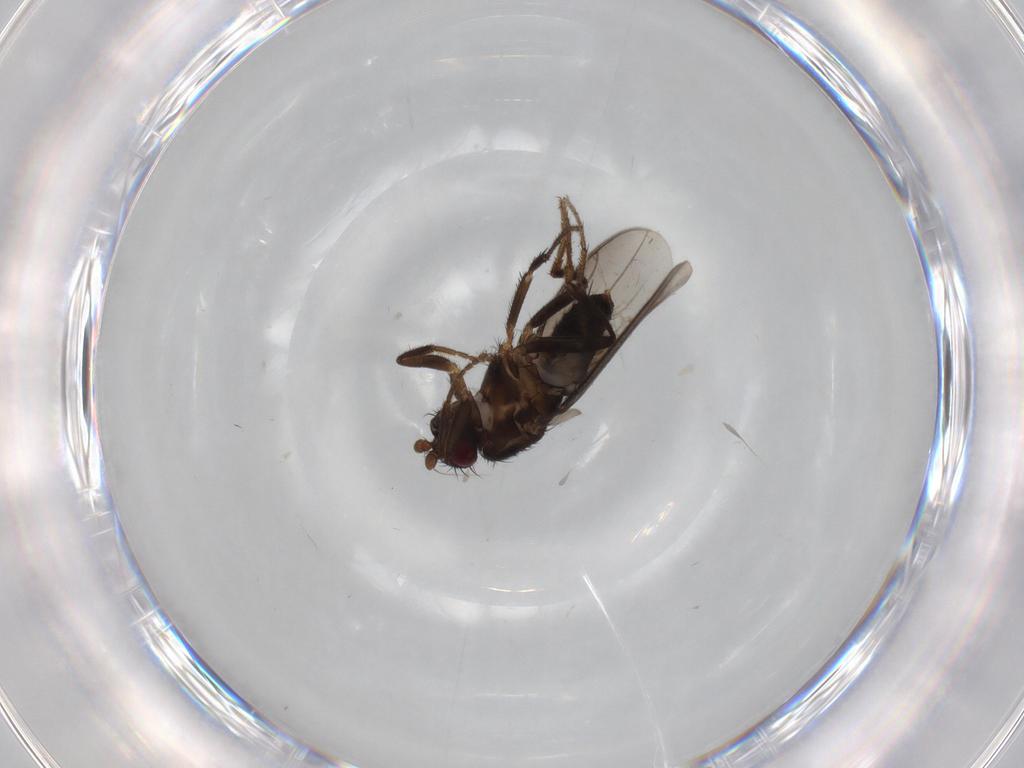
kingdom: Animalia
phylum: Arthropoda
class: Insecta
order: Diptera
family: Sphaeroceridae
